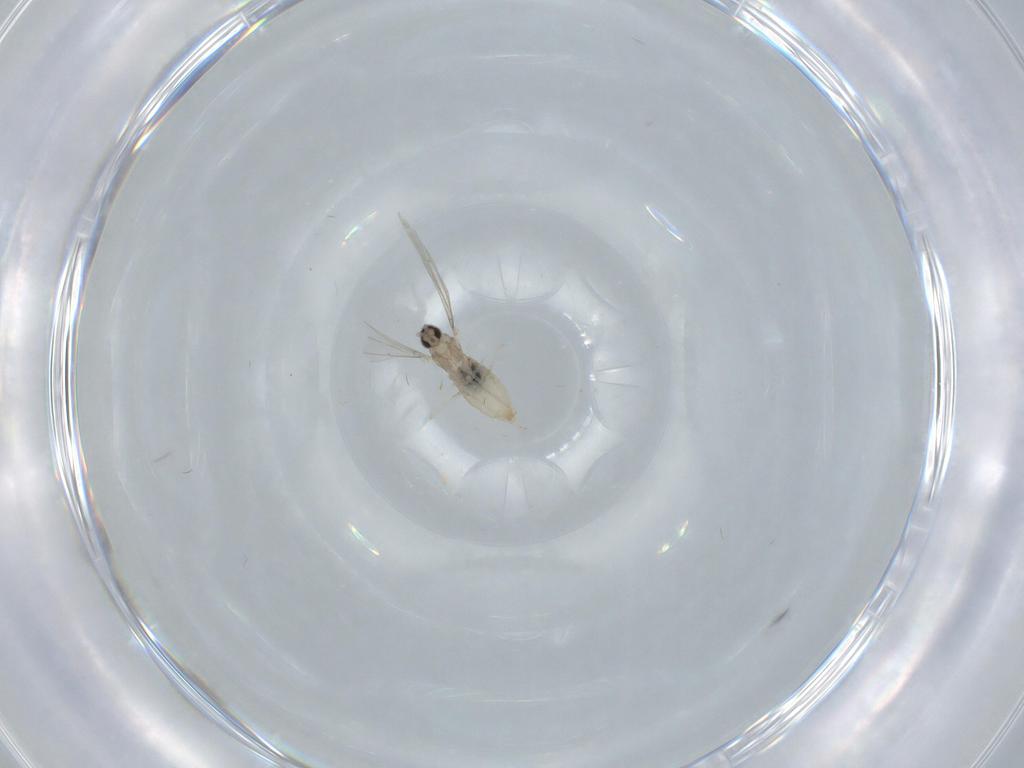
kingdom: Animalia
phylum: Arthropoda
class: Insecta
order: Diptera
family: Cecidomyiidae
